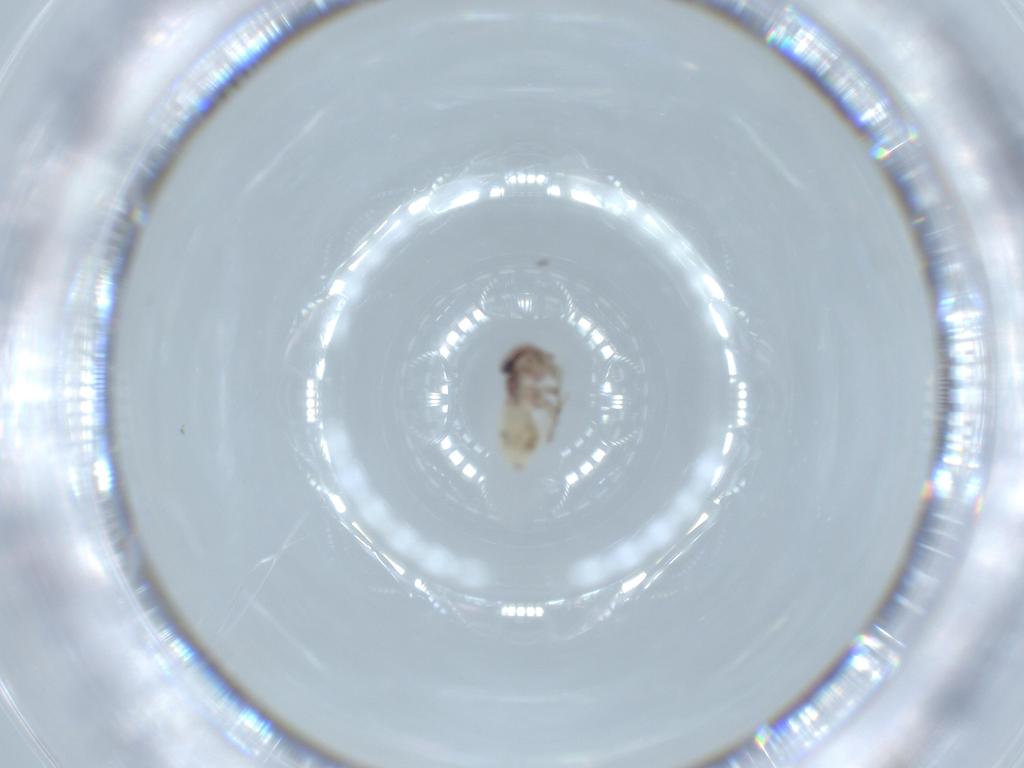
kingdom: Animalia
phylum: Arthropoda
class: Insecta
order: Psocodea
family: Lepidopsocidae
